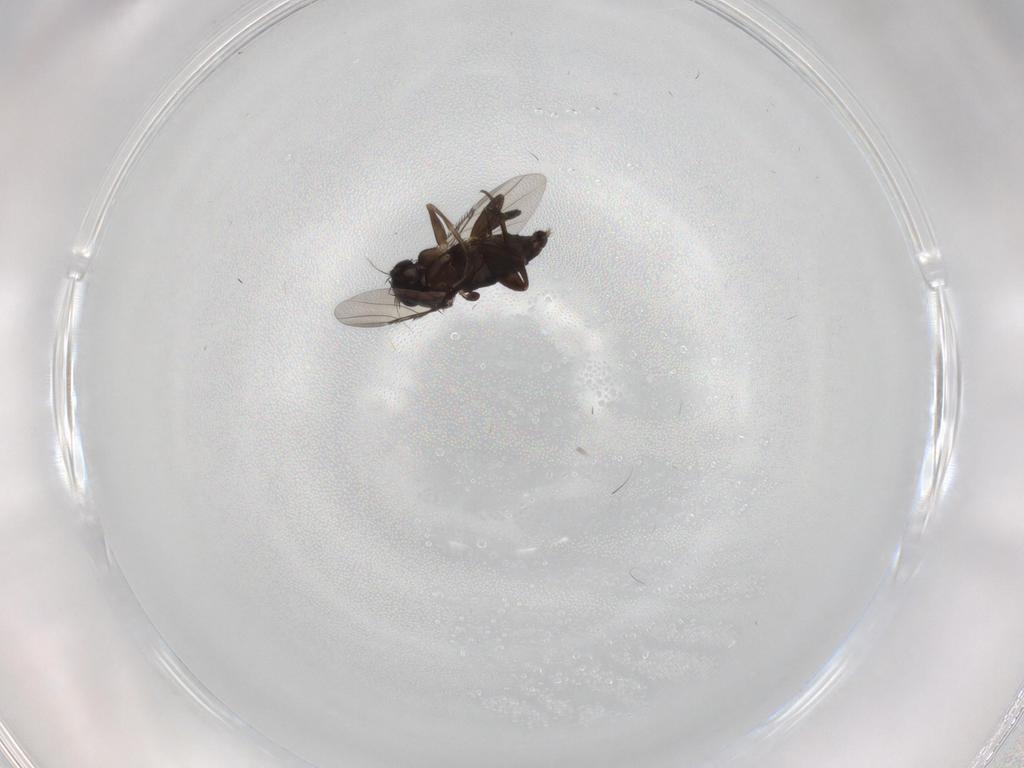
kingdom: Animalia
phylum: Arthropoda
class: Insecta
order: Diptera
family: Phoridae
